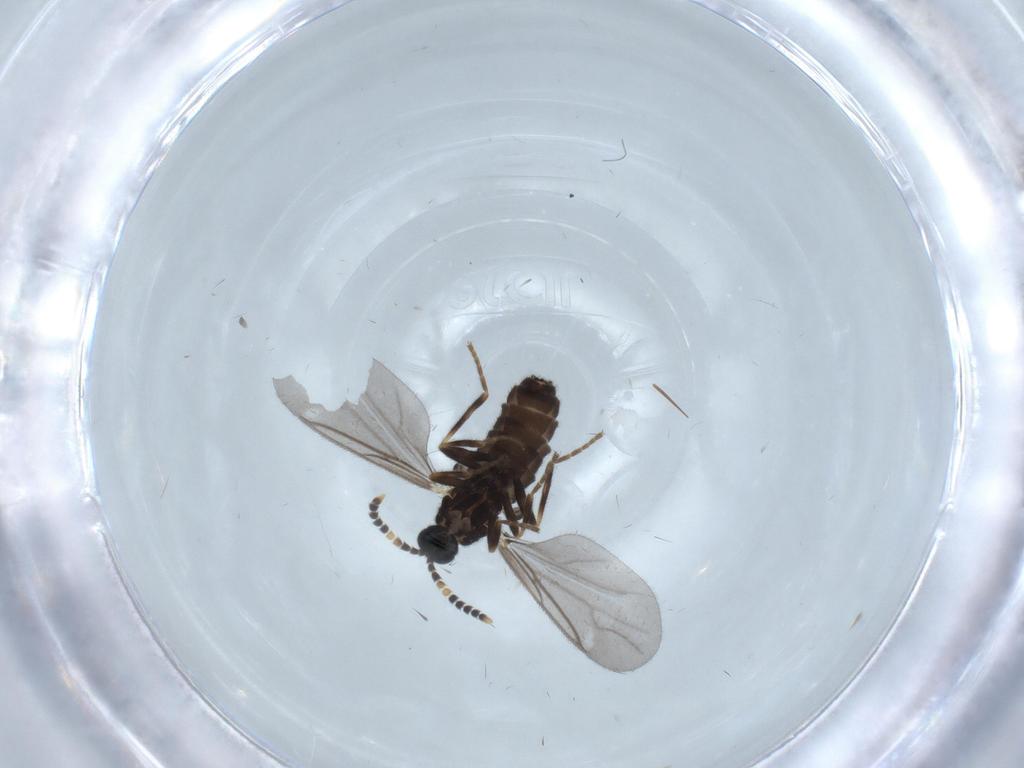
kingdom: Animalia
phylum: Arthropoda
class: Insecta
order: Diptera
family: Scatopsidae
